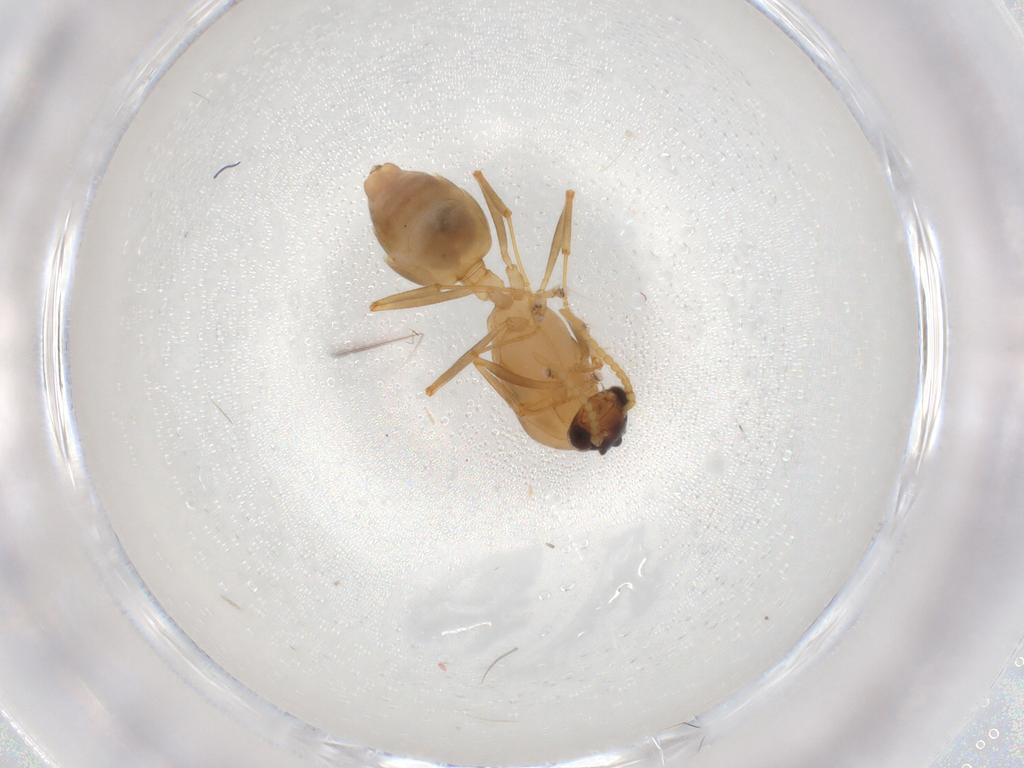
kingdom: Animalia
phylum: Arthropoda
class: Insecta
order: Hymenoptera
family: Formicidae
